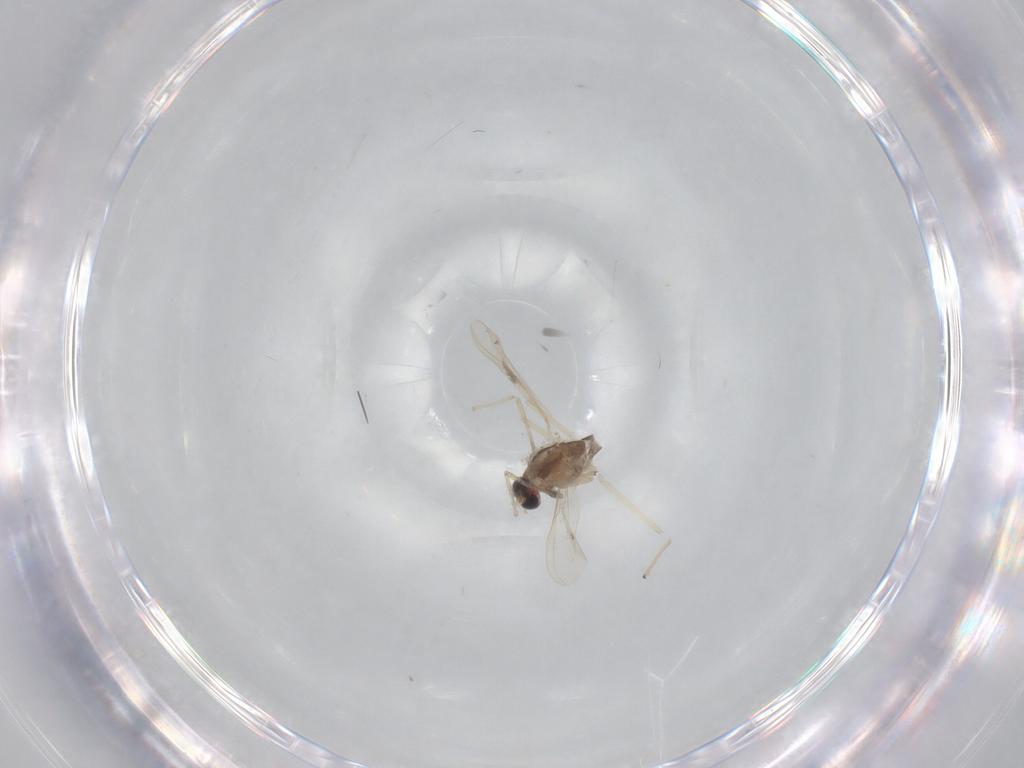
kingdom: Animalia
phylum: Arthropoda
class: Insecta
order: Diptera
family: Chironomidae
